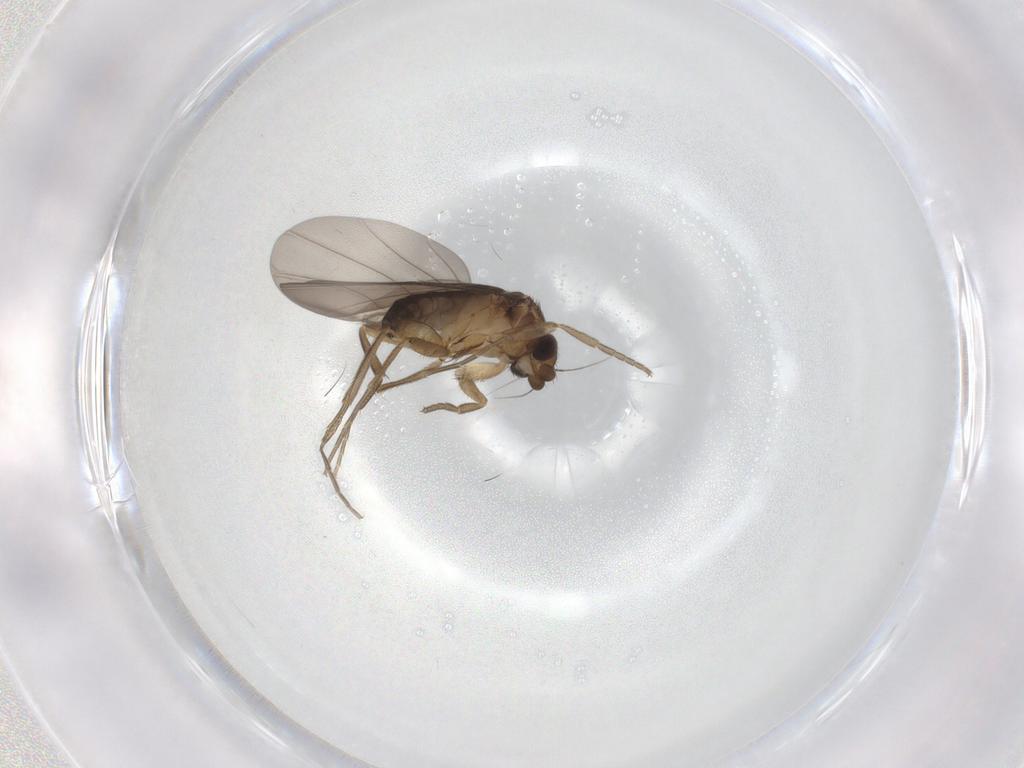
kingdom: Animalia
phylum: Arthropoda
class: Insecta
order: Diptera
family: Phoridae
